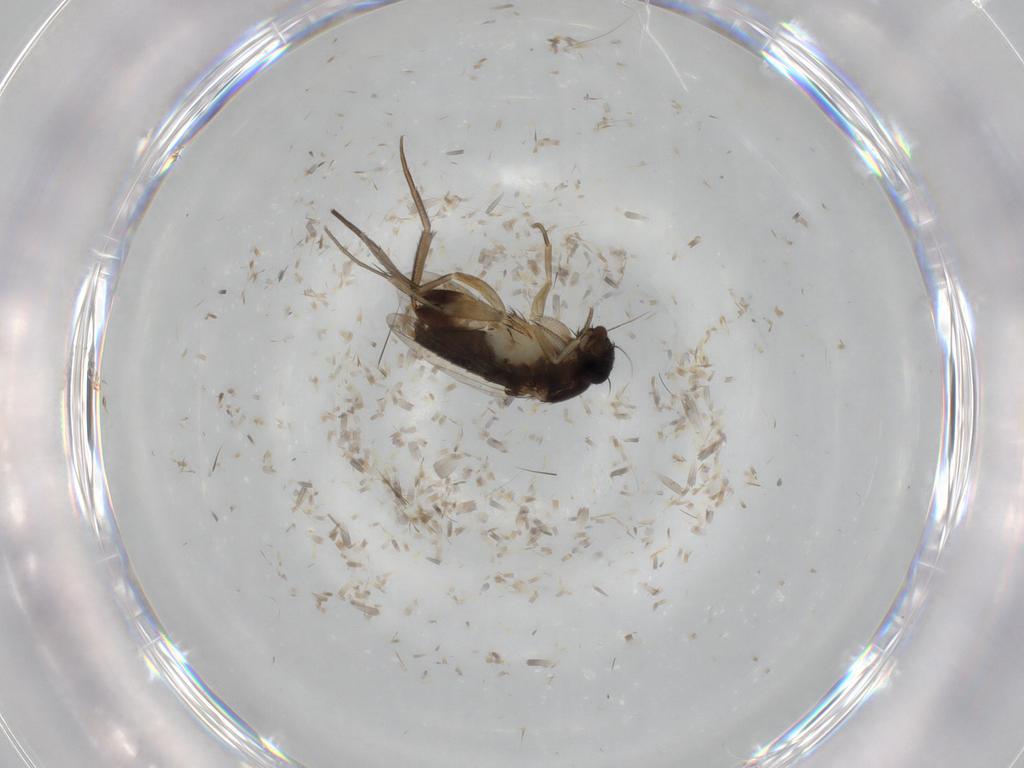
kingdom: Animalia
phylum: Arthropoda
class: Insecta
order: Diptera
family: Phoridae
